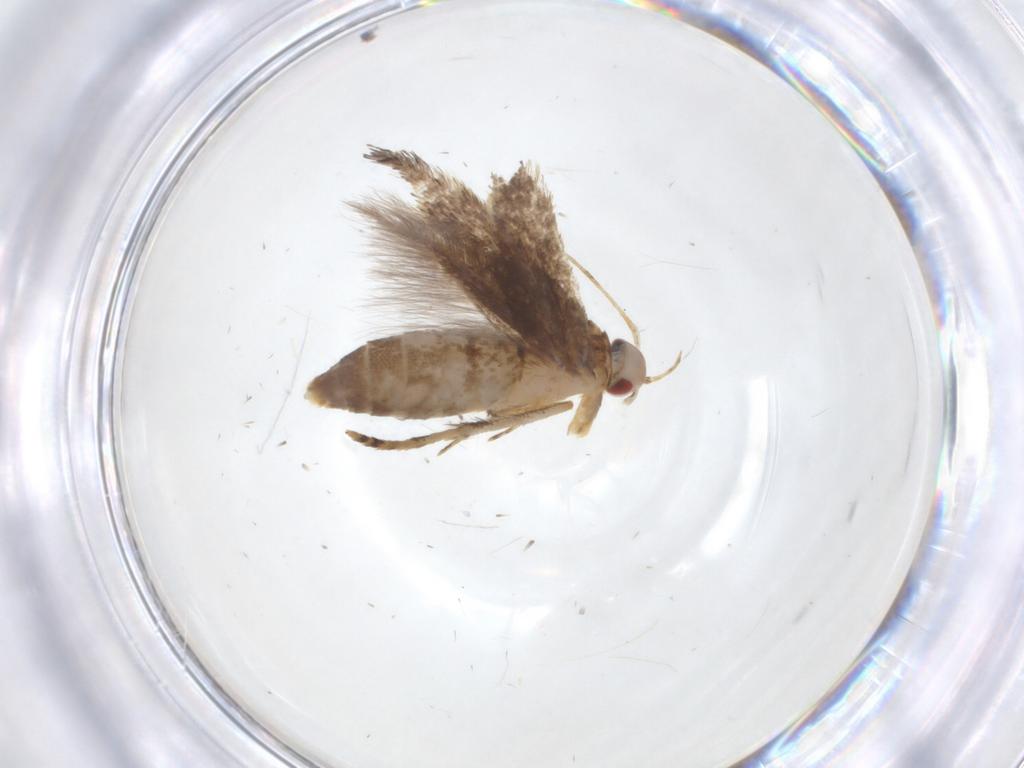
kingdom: Animalia
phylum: Arthropoda
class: Insecta
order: Lepidoptera
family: Cosmopterigidae
